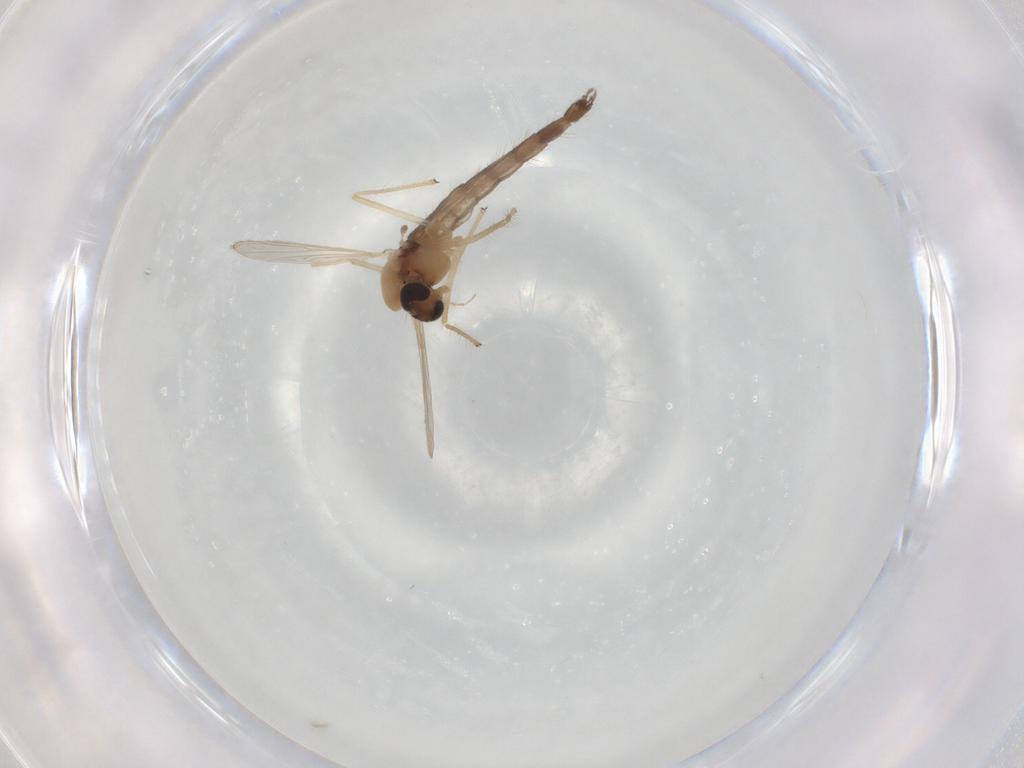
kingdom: Animalia
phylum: Arthropoda
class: Insecta
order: Diptera
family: Chironomidae
